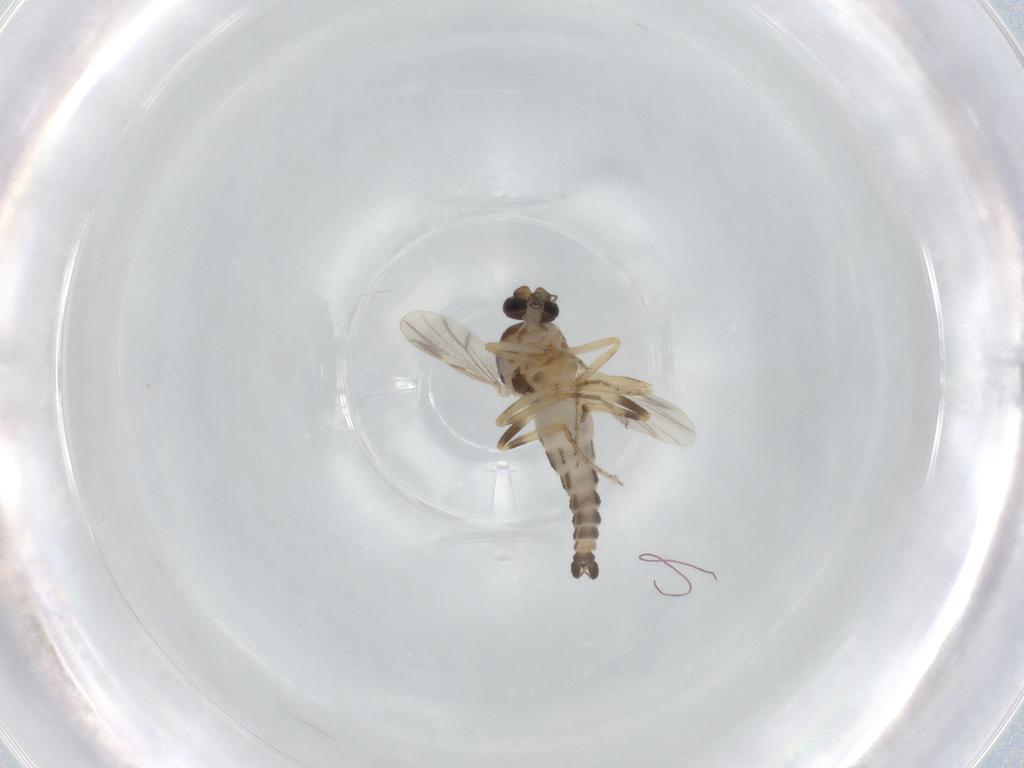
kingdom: Animalia
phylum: Arthropoda
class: Insecta
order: Diptera
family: Ceratopogonidae
